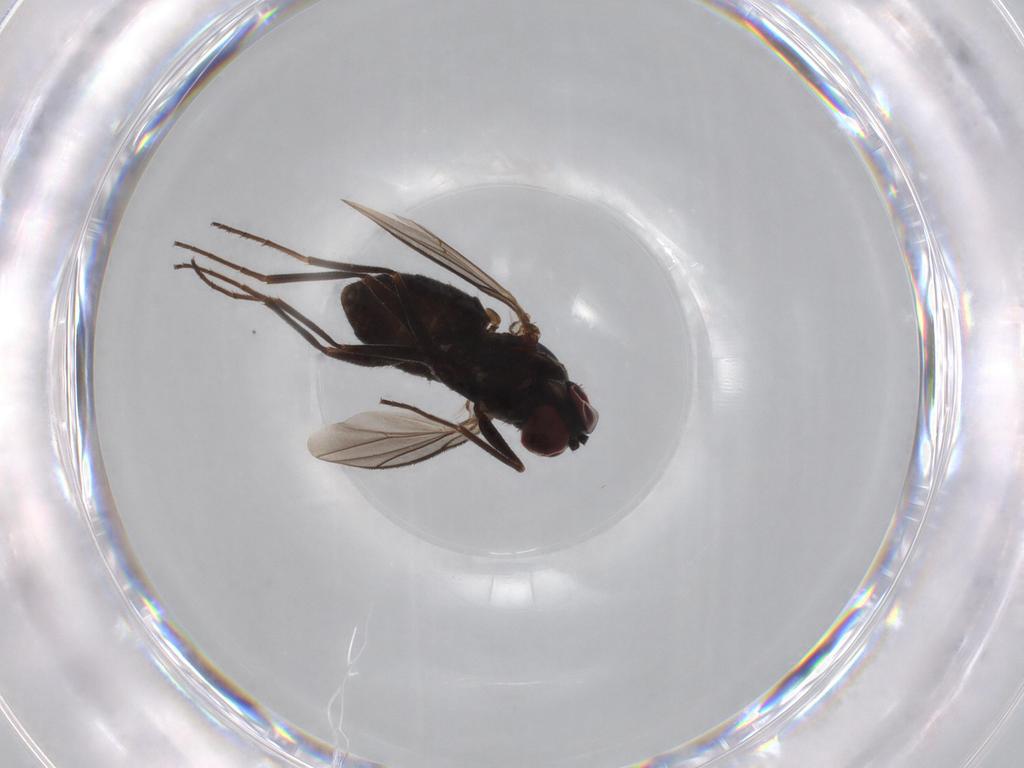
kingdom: Animalia
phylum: Arthropoda
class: Insecta
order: Diptera
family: Dolichopodidae
